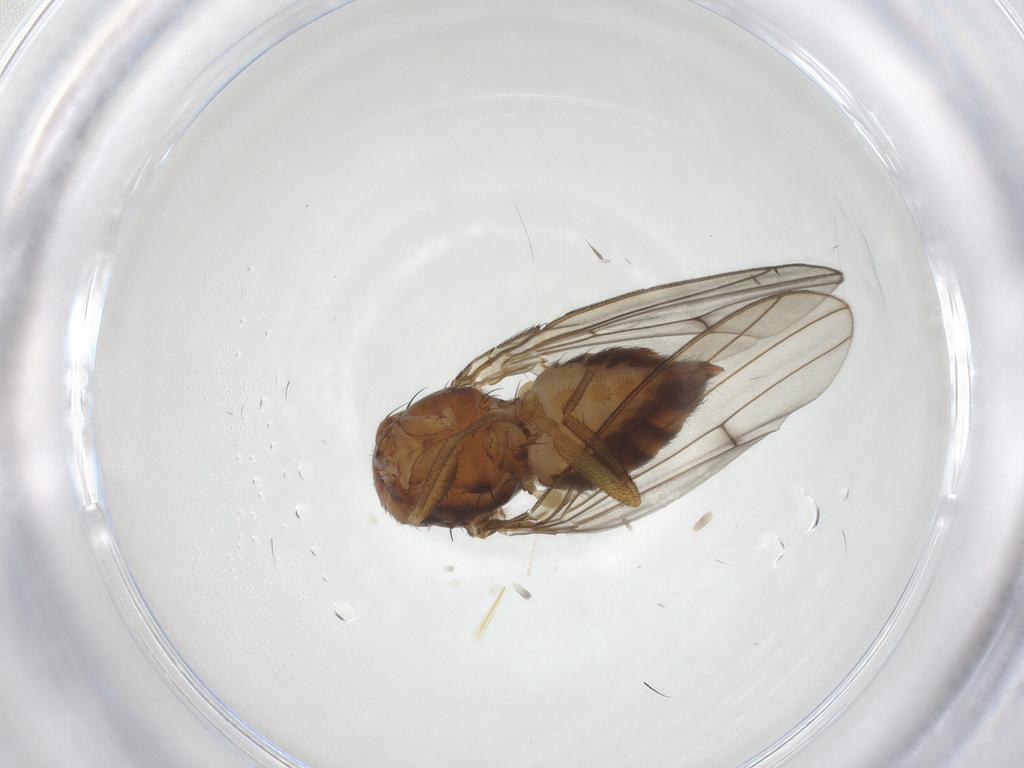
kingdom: Animalia
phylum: Arthropoda
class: Insecta
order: Diptera
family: Drosophilidae
